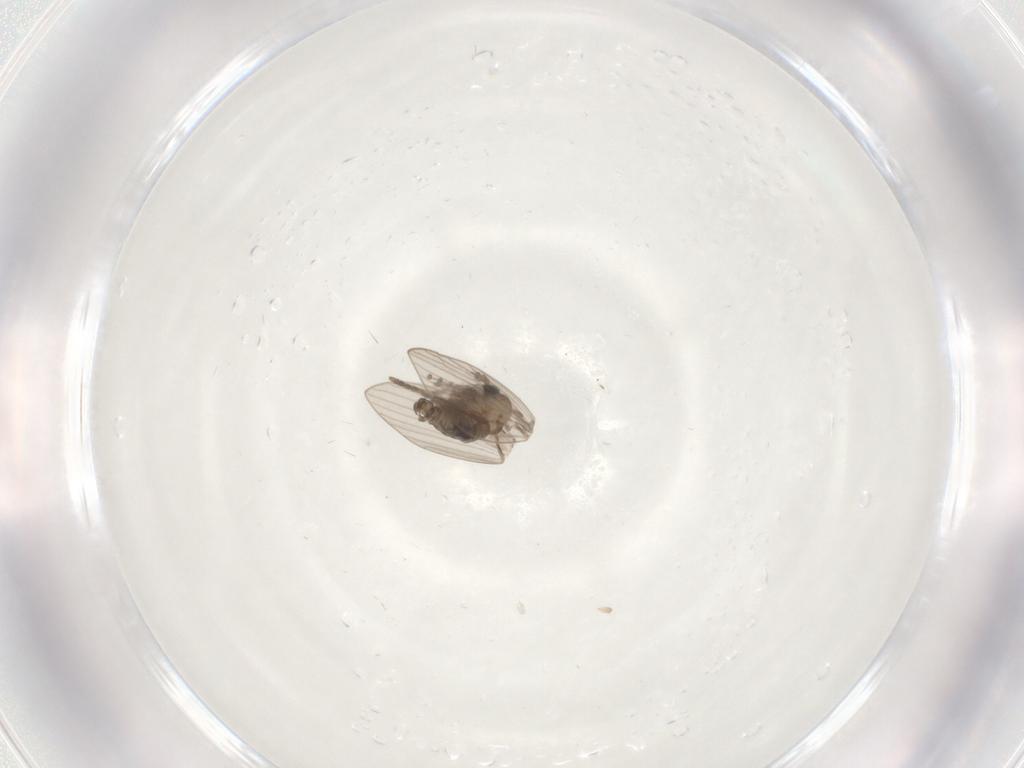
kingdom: Animalia
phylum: Arthropoda
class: Insecta
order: Diptera
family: Psychodidae
